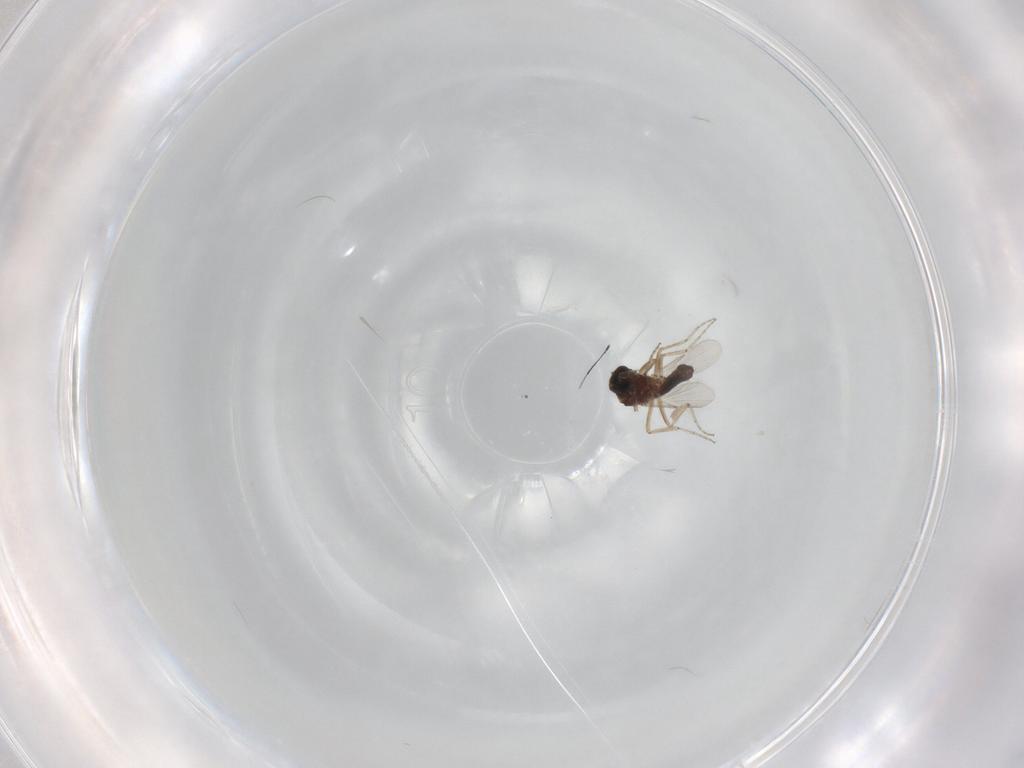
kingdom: Animalia
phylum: Arthropoda
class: Insecta
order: Diptera
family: Ceratopogonidae
